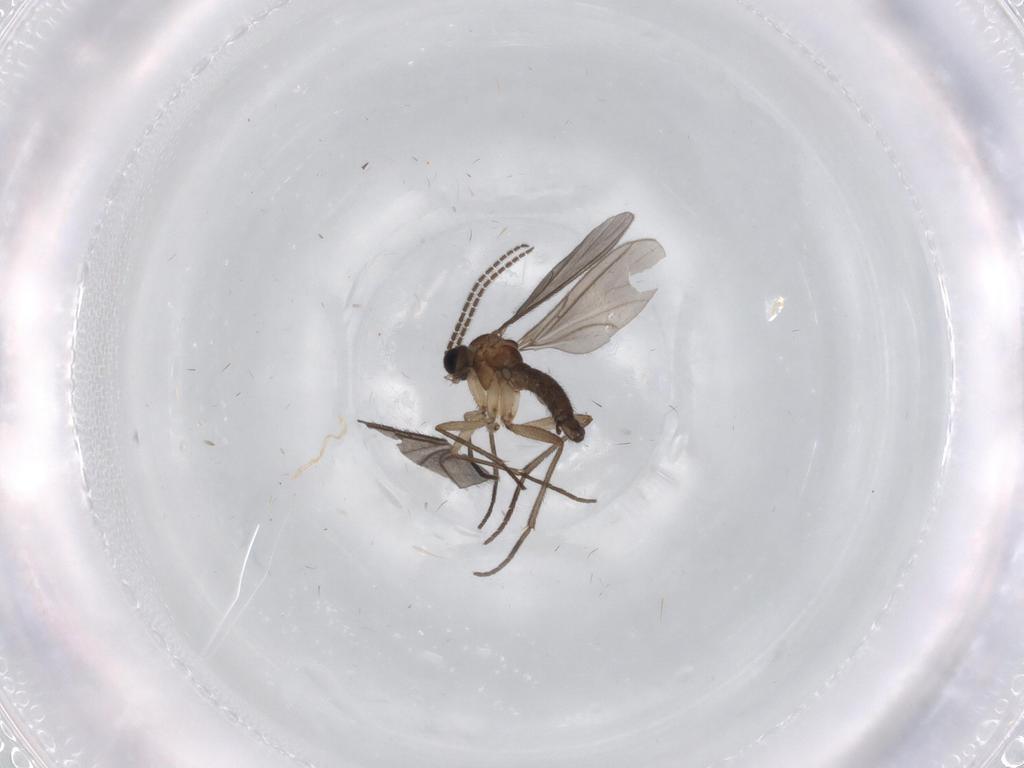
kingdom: Animalia
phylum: Arthropoda
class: Insecta
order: Diptera
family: Sciaridae
